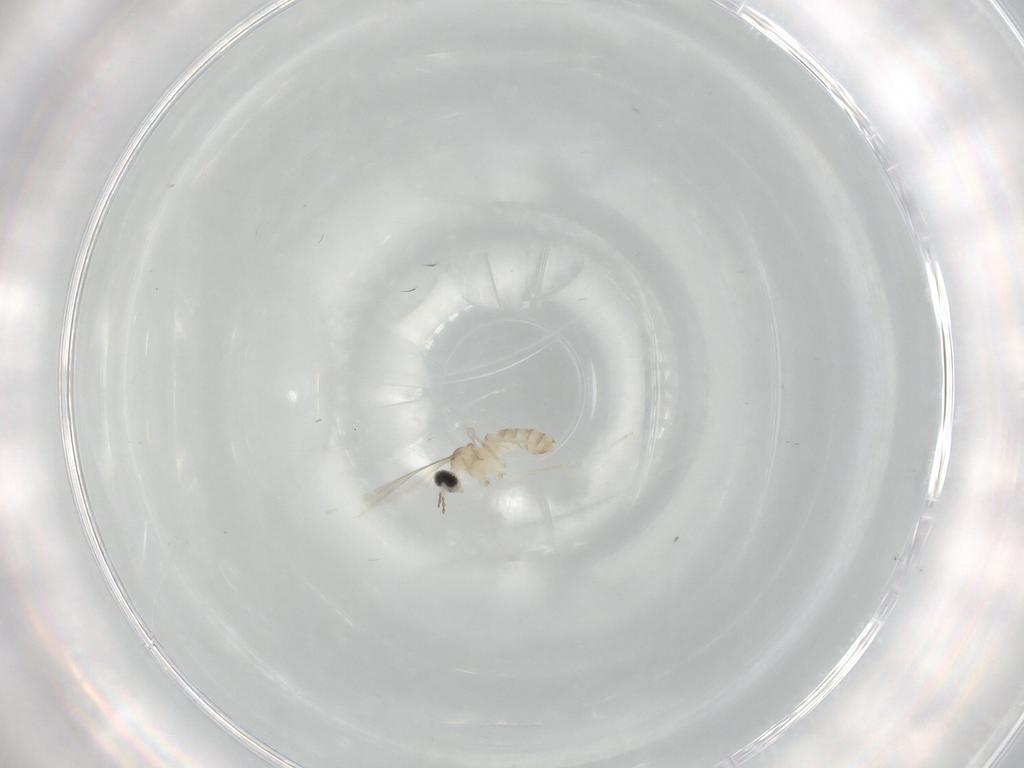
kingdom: Animalia
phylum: Arthropoda
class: Insecta
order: Diptera
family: Cecidomyiidae
